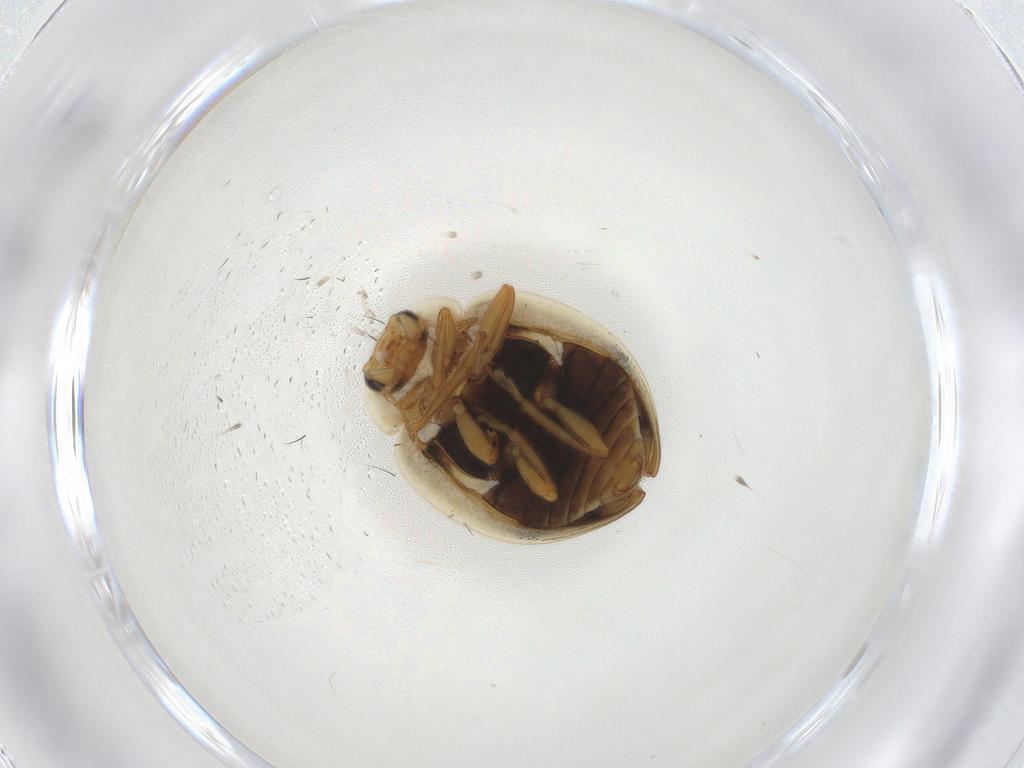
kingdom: Animalia
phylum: Arthropoda
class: Insecta
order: Coleoptera
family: Coccinellidae
